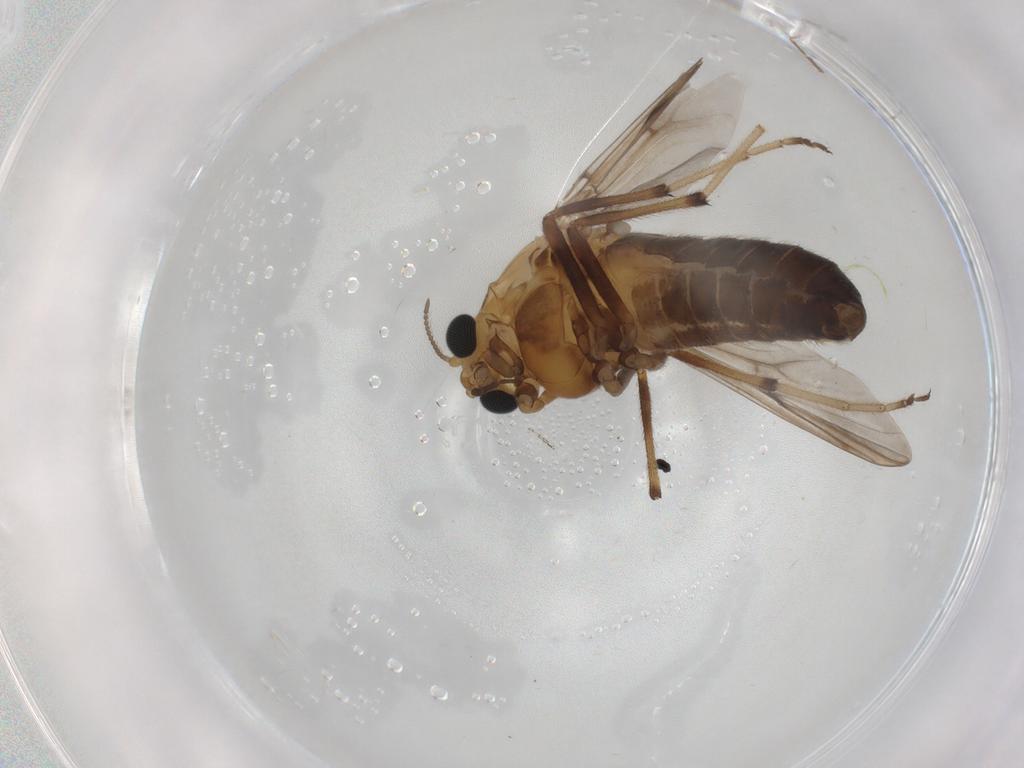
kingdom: Animalia
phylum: Arthropoda
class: Insecta
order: Diptera
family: Chironomidae
